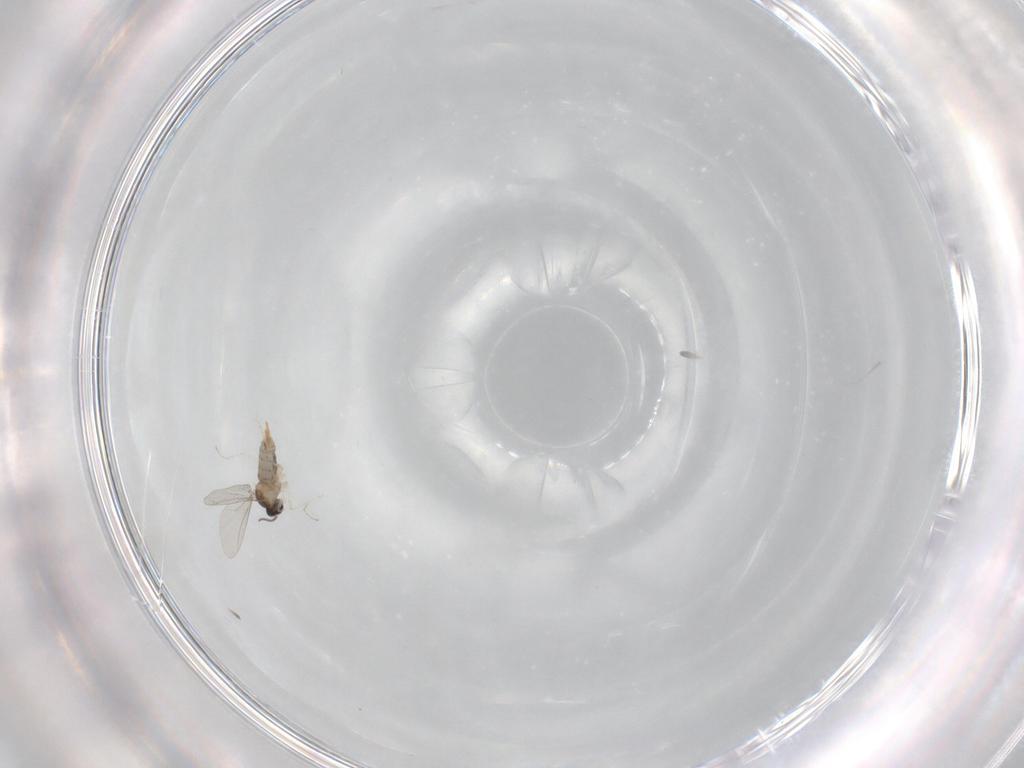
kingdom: Animalia
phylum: Arthropoda
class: Insecta
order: Diptera
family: Cecidomyiidae
